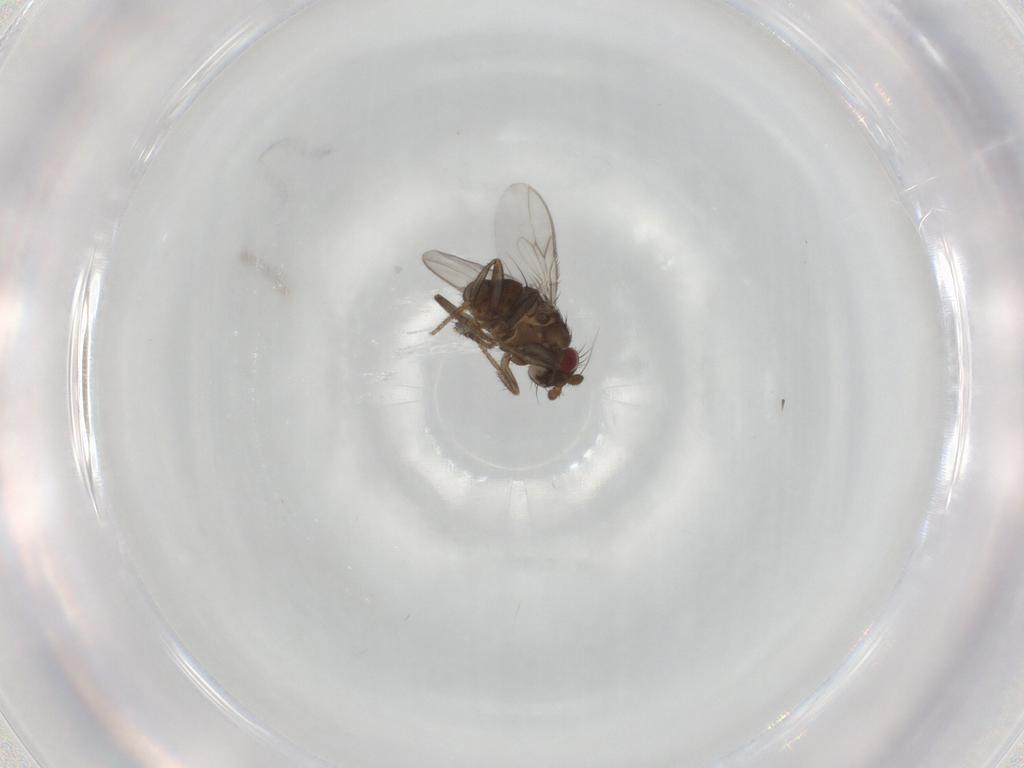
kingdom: Animalia
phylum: Arthropoda
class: Insecta
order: Diptera
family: Sphaeroceridae
